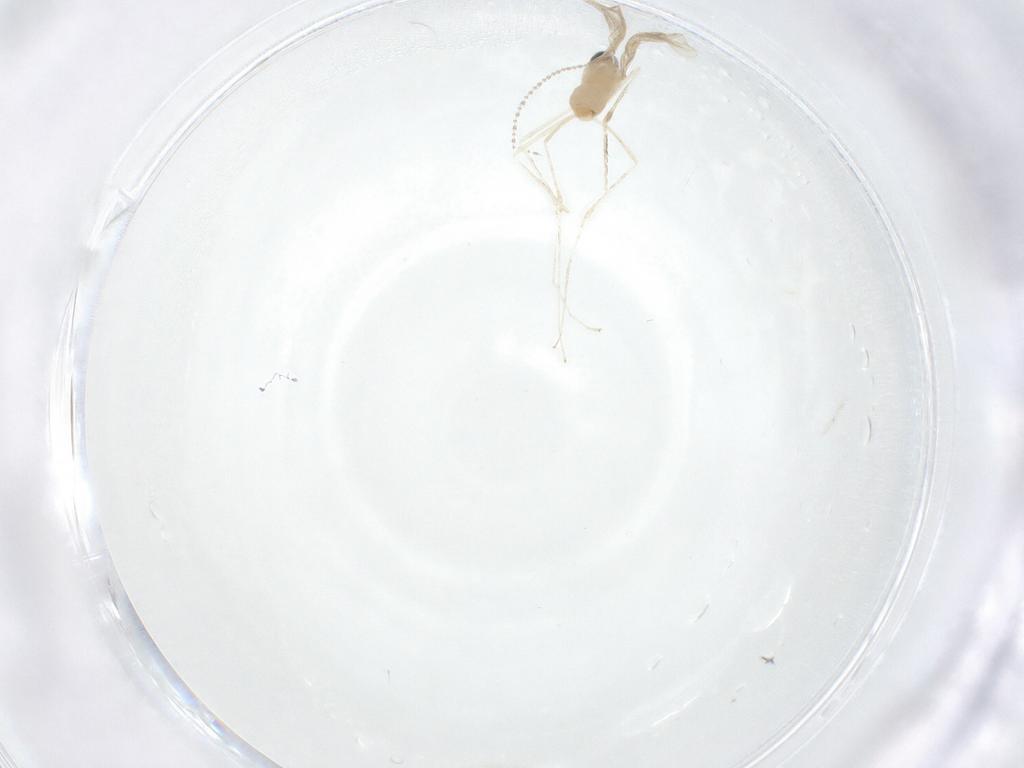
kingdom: Animalia
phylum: Arthropoda
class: Insecta
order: Diptera
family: Cecidomyiidae
